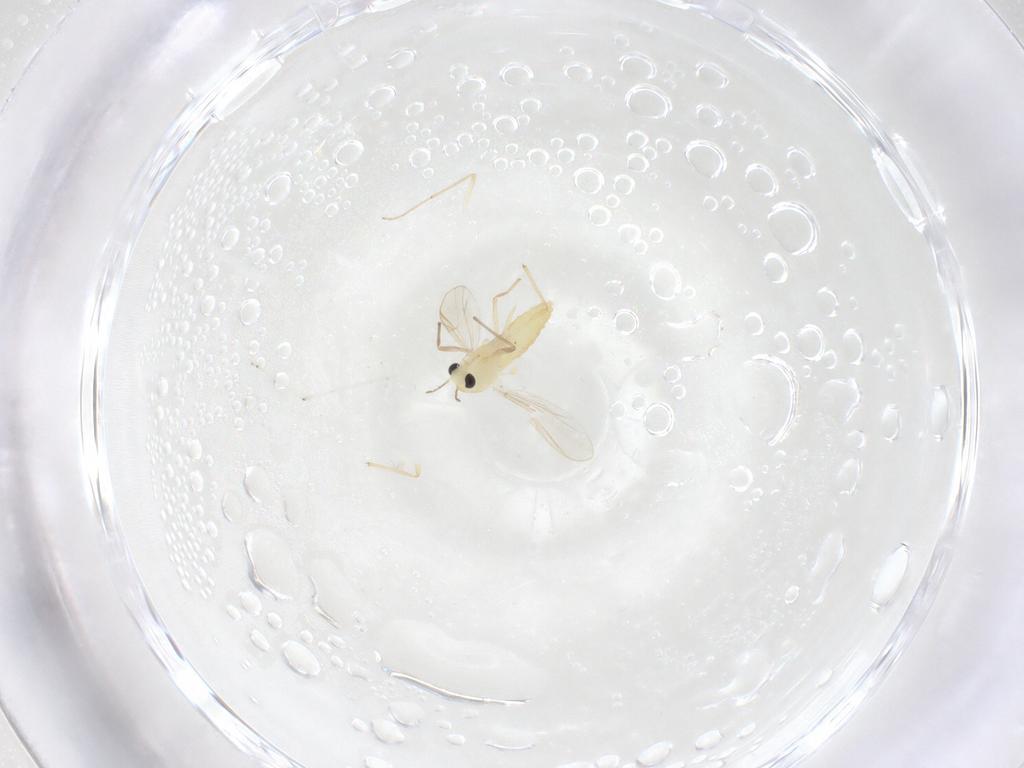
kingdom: Animalia
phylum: Arthropoda
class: Insecta
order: Diptera
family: Chironomidae
